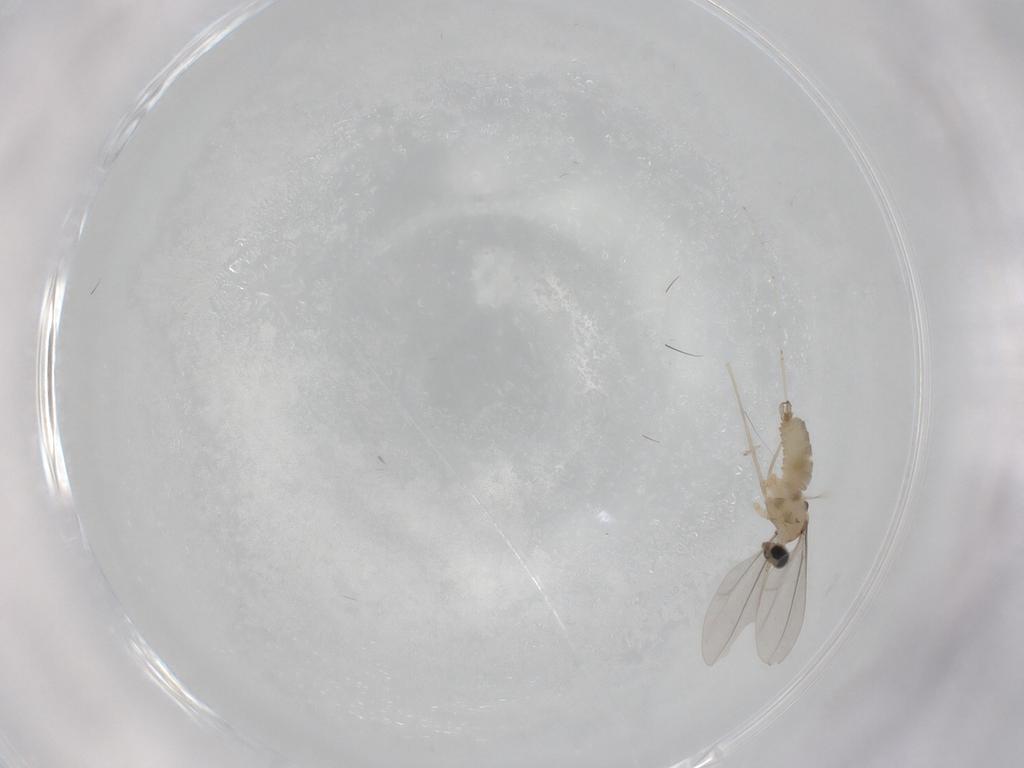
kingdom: Animalia
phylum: Arthropoda
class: Insecta
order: Diptera
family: Cecidomyiidae
